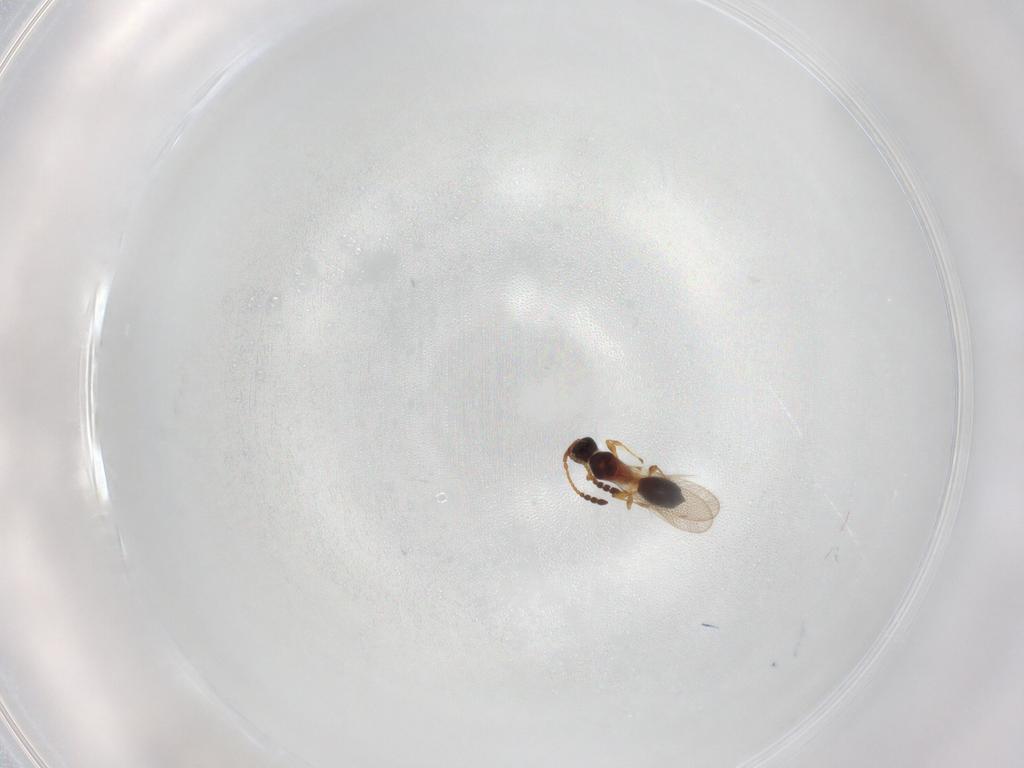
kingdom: Animalia
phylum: Arthropoda
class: Insecta
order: Hymenoptera
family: Diapriidae
